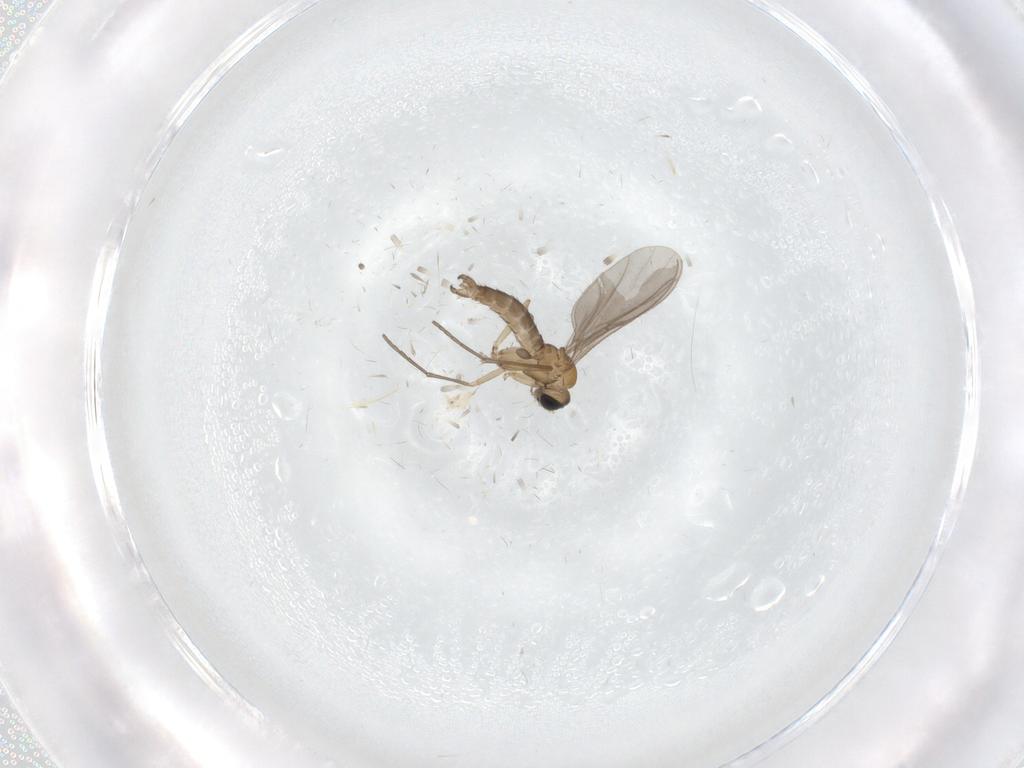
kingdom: Animalia
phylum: Arthropoda
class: Insecta
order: Diptera
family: Sciaridae
